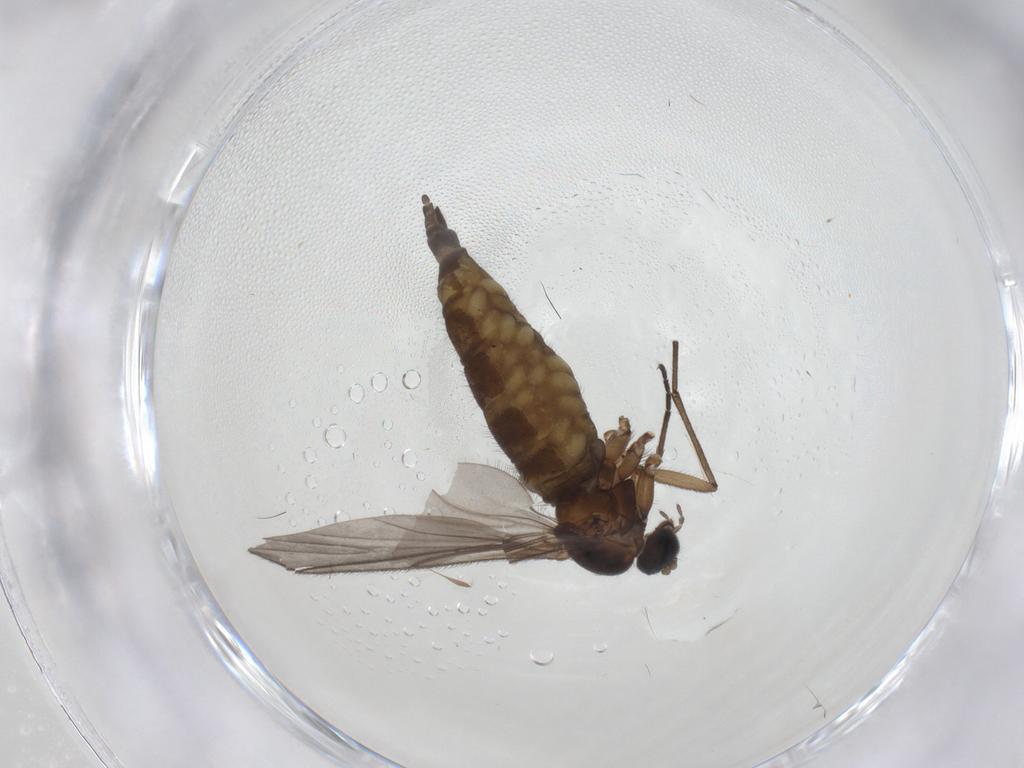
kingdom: Animalia
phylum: Arthropoda
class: Insecta
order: Diptera
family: Sciaridae
